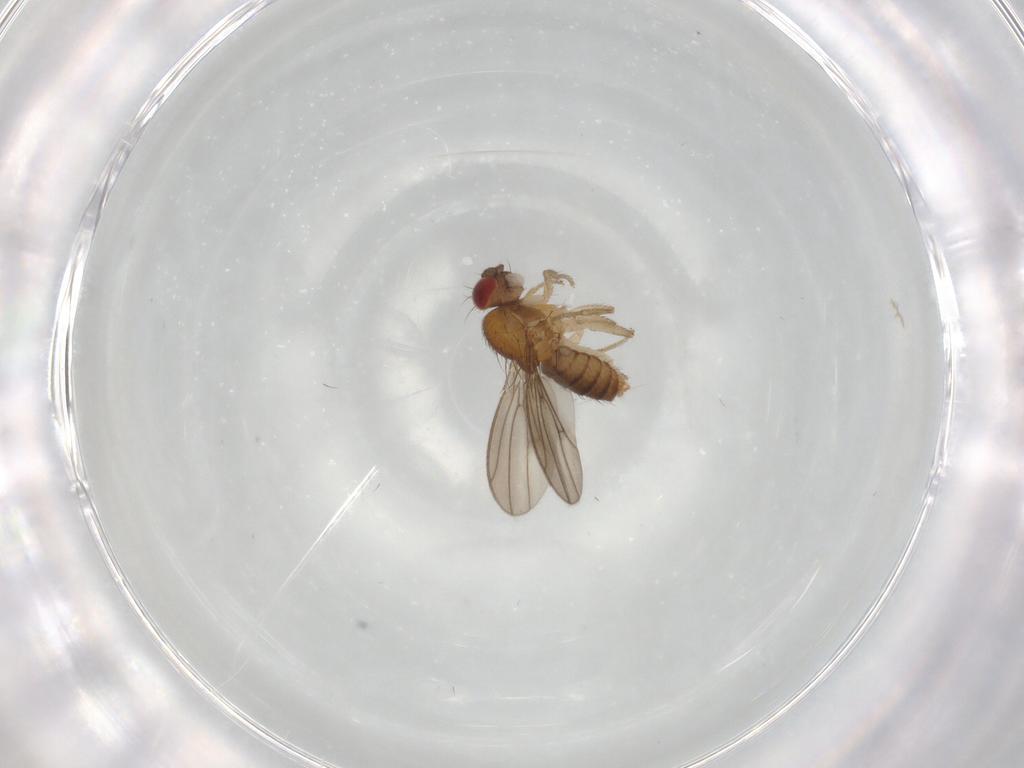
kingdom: Animalia
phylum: Arthropoda
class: Insecta
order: Diptera
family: Drosophilidae
